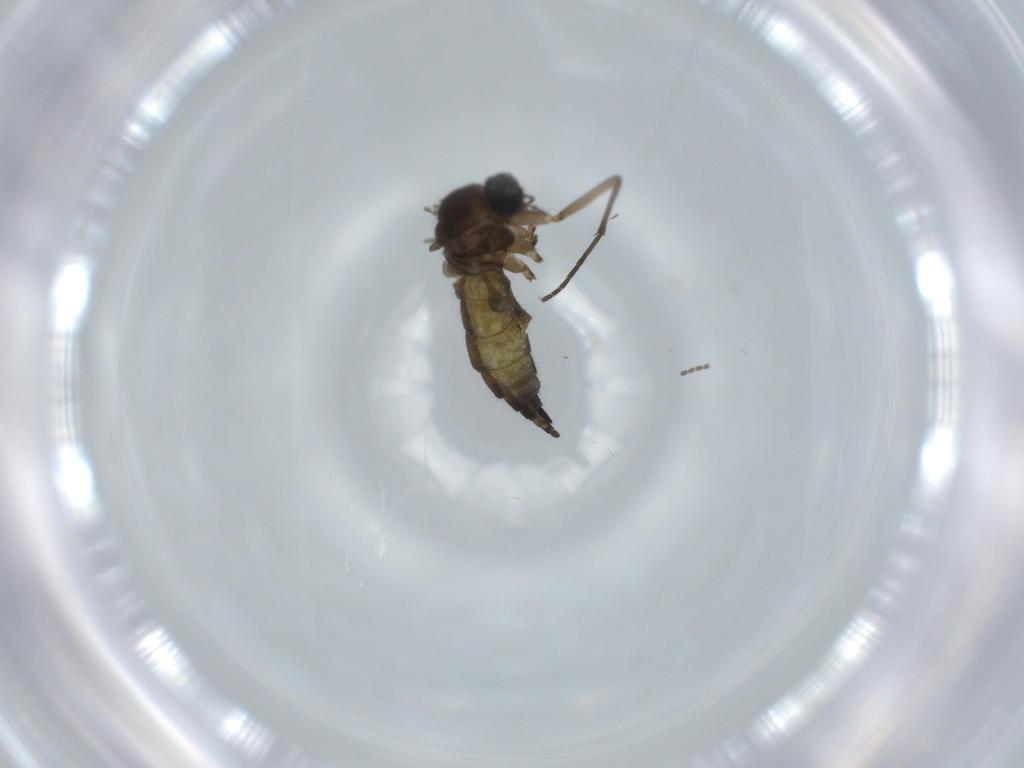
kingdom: Animalia
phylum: Arthropoda
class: Insecta
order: Diptera
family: Sciaridae
